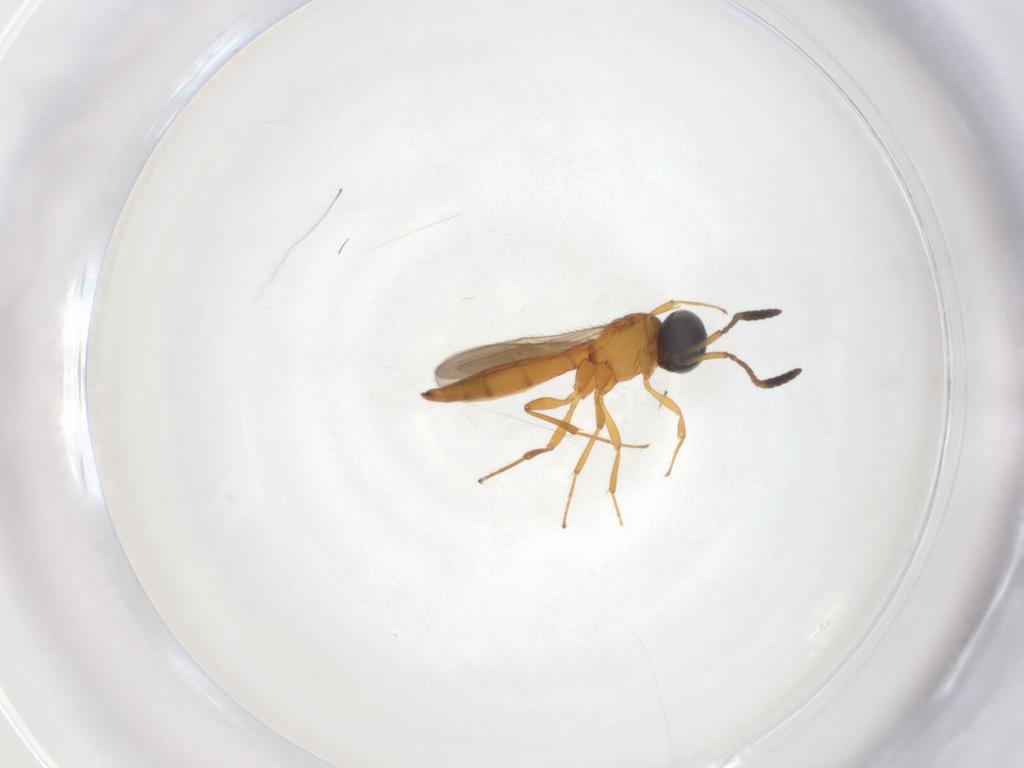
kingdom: Animalia
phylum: Arthropoda
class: Insecta
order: Hymenoptera
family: Scelionidae
